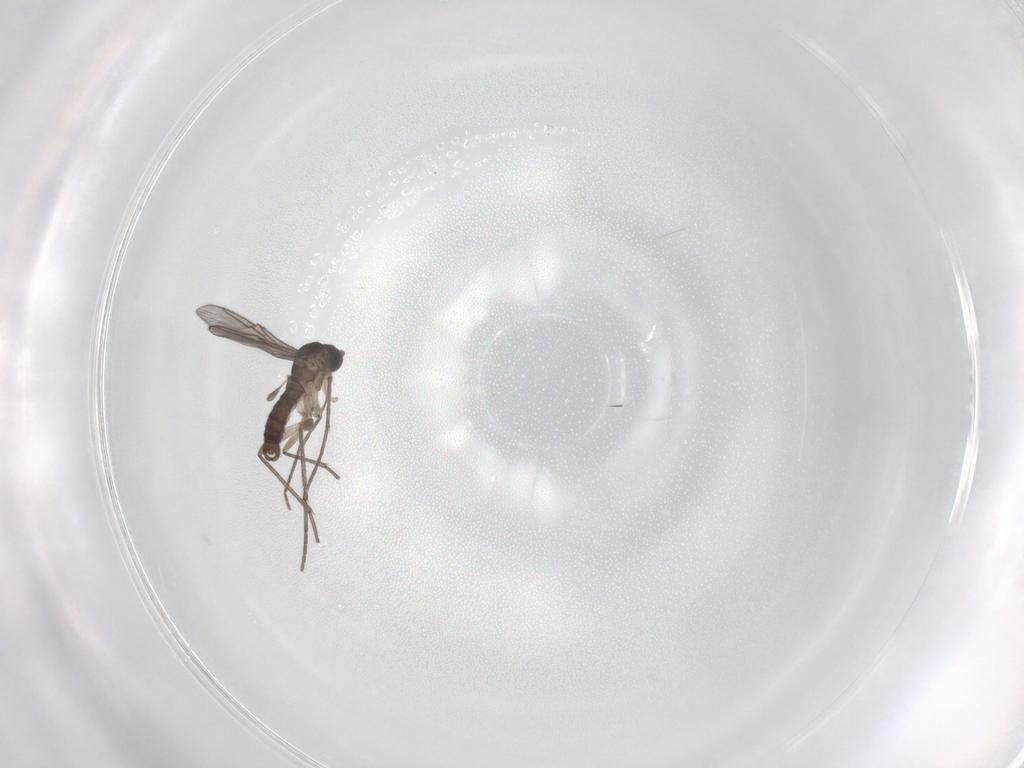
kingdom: Animalia
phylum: Arthropoda
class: Insecta
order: Diptera
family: Sciaridae
